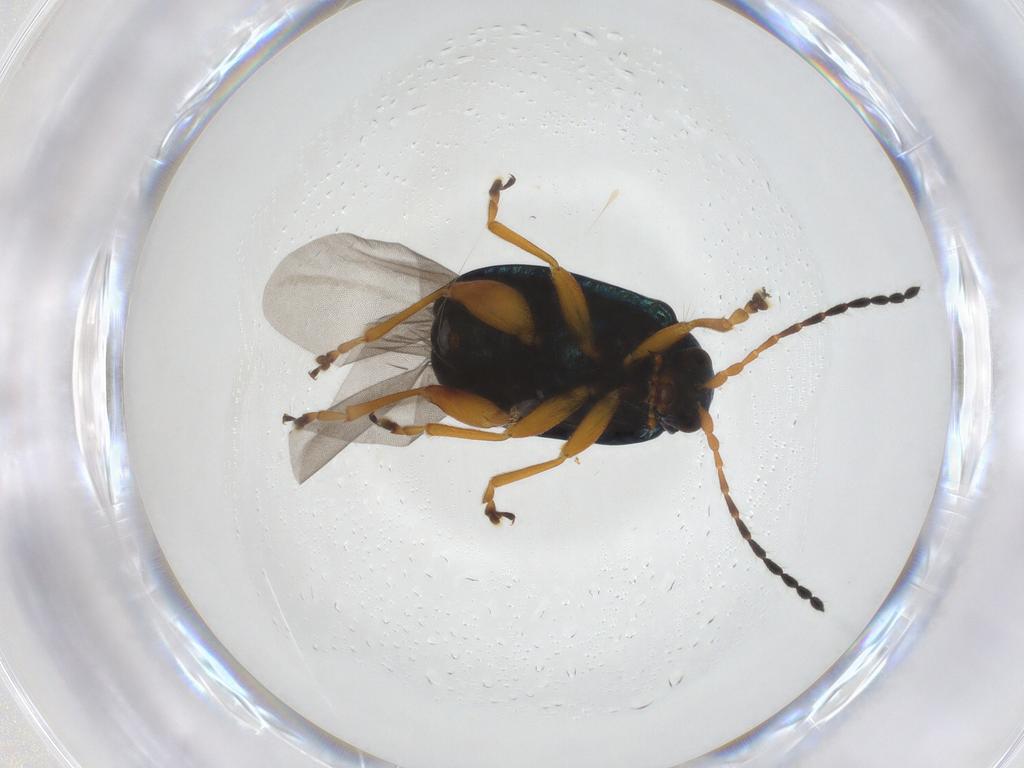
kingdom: Animalia
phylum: Arthropoda
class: Insecta
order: Coleoptera
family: Chrysomelidae
